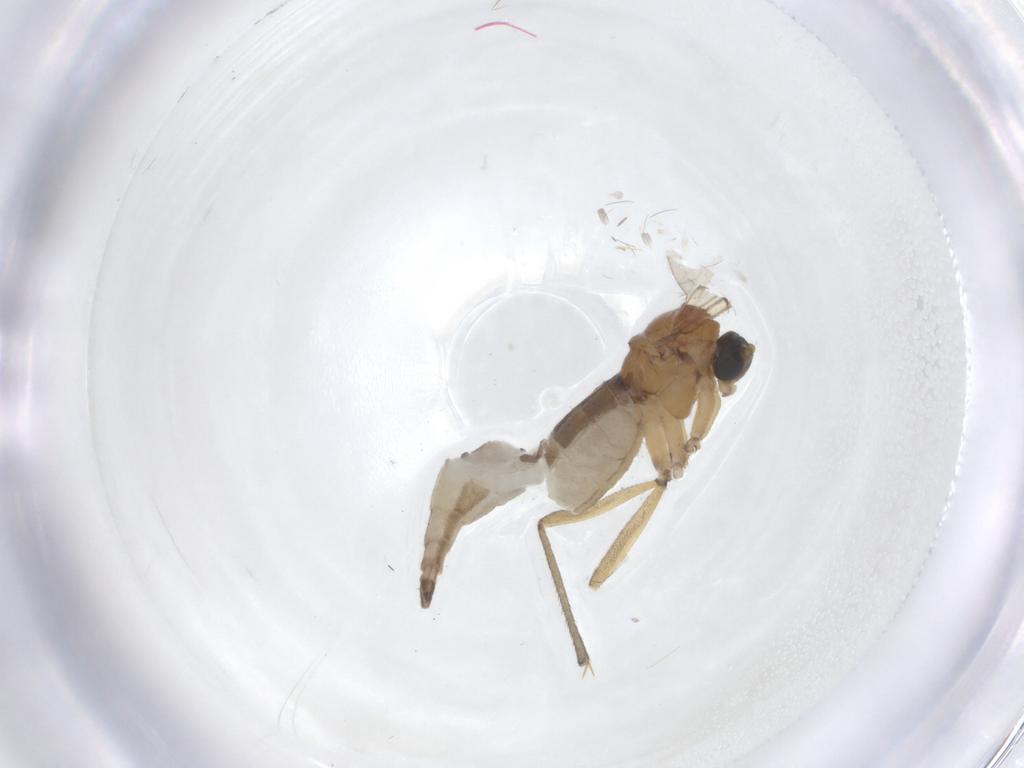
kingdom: Animalia
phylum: Arthropoda
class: Insecta
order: Diptera
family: Sciaridae
